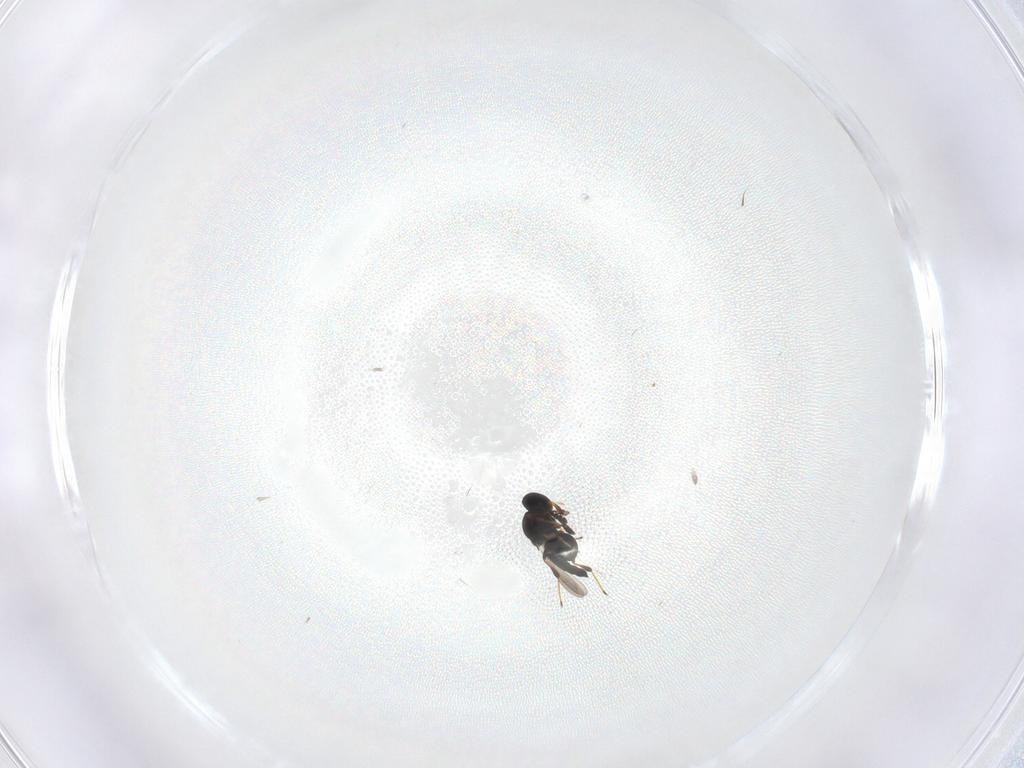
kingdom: Animalia
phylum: Arthropoda
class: Insecta
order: Hymenoptera
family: Platygastridae
